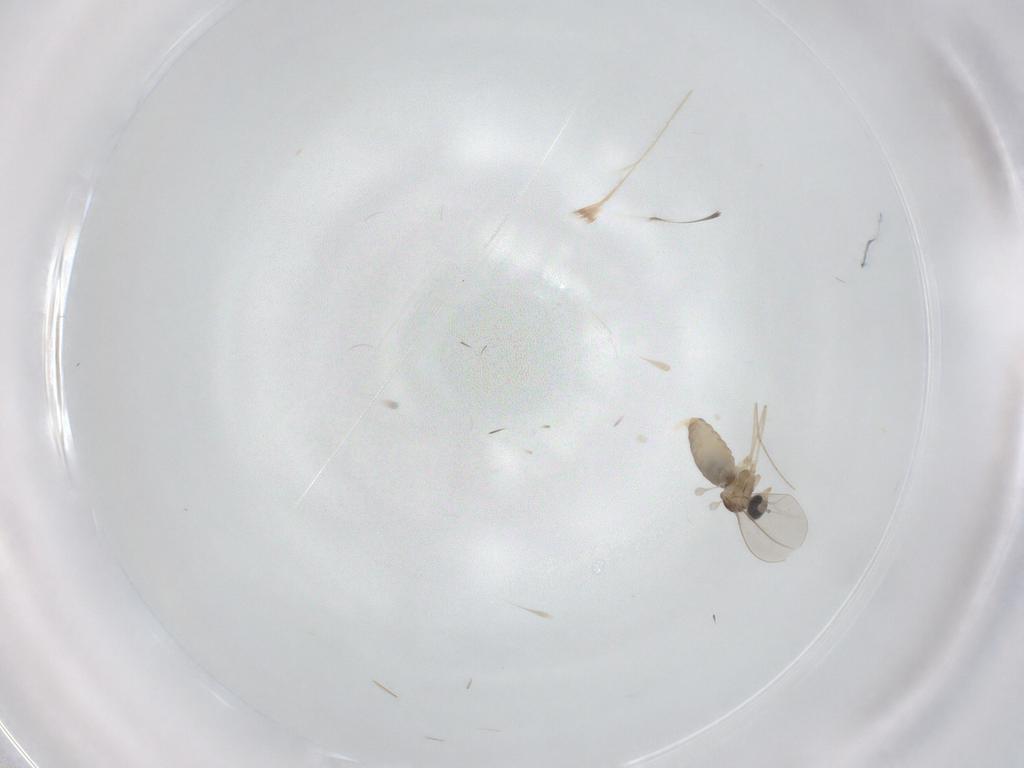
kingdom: Animalia
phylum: Arthropoda
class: Insecta
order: Diptera
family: Cecidomyiidae
